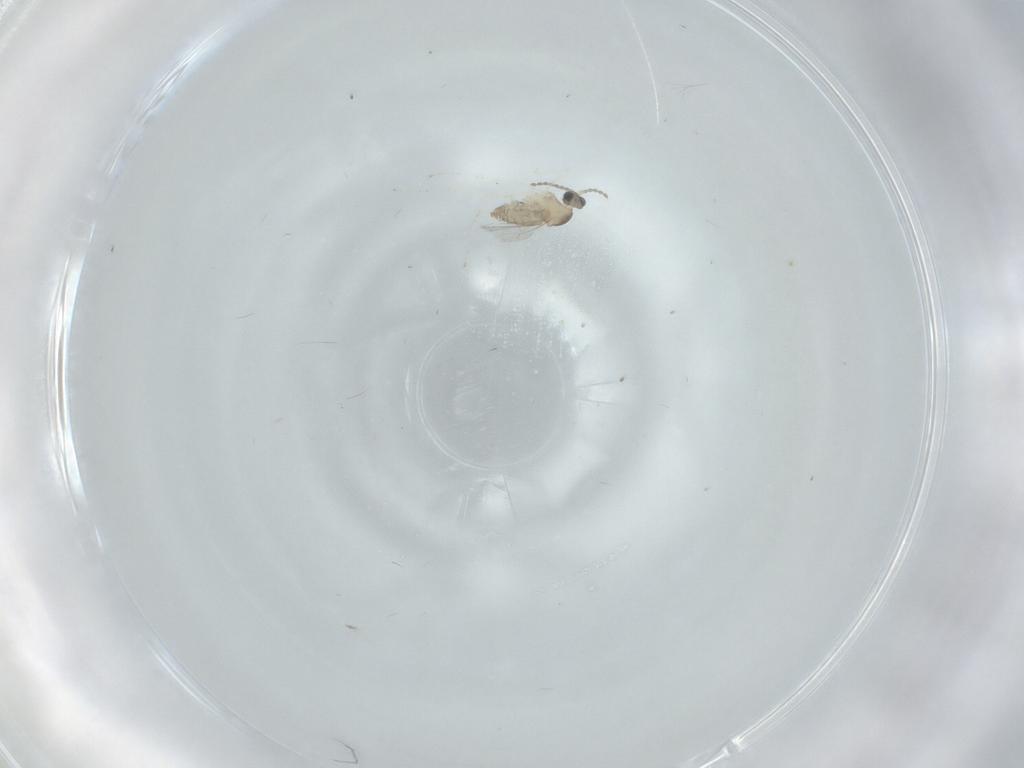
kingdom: Animalia
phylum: Arthropoda
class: Insecta
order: Diptera
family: Cecidomyiidae
